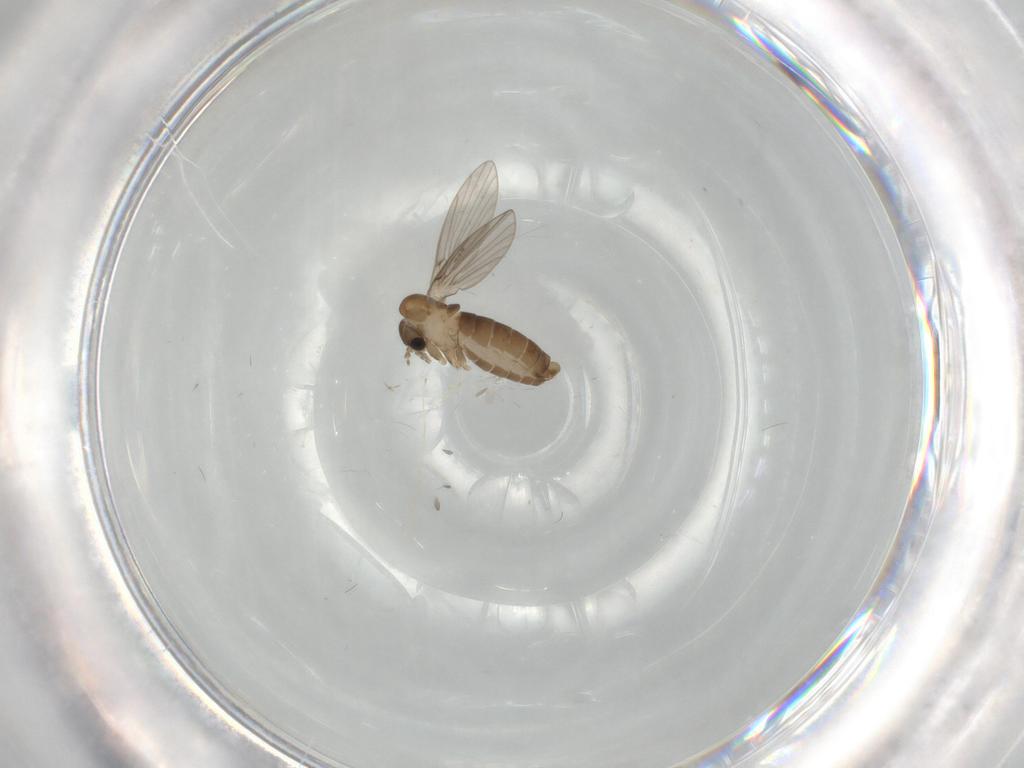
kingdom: Animalia
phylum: Arthropoda
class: Insecta
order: Diptera
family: Psychodidae
